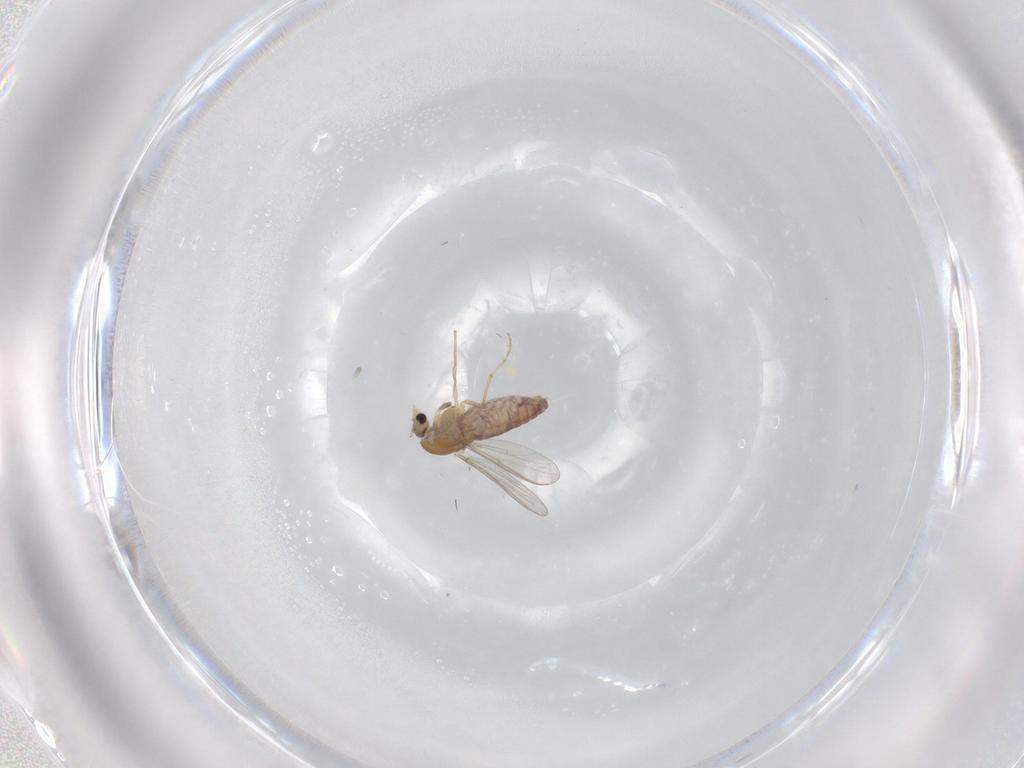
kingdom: Animalia
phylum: Arthropoda
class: Insecta
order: Diptera
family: Chironomidae
